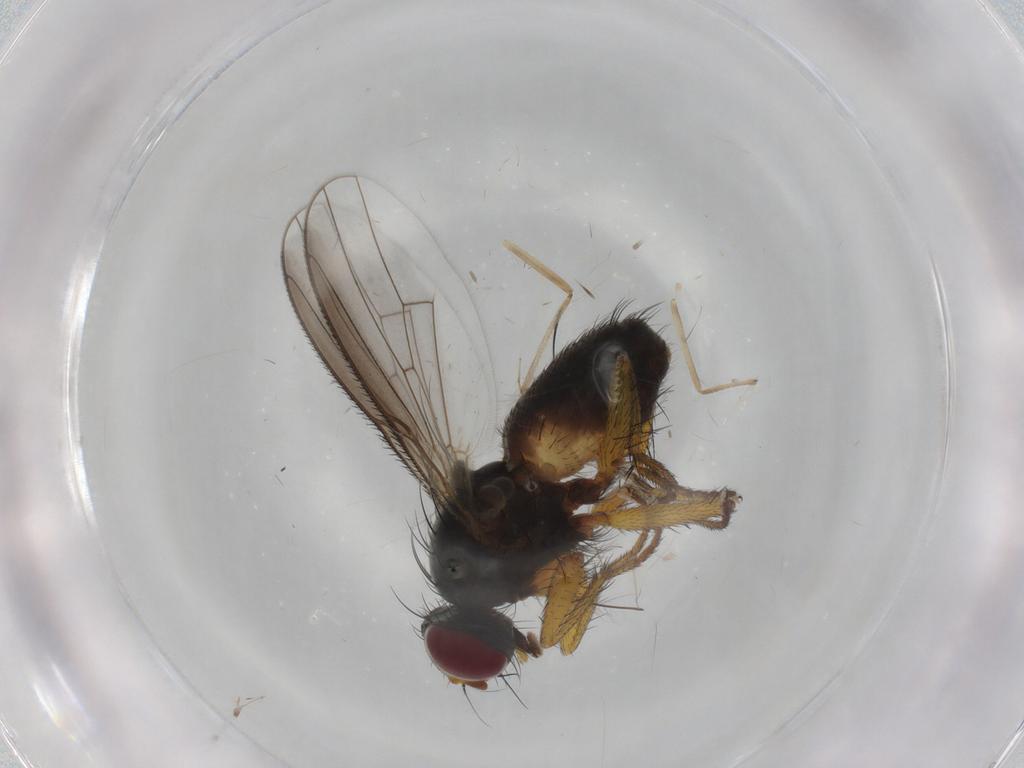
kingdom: Animalia
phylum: Arthropoda
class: Insecta
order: Diptera
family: Muscidae
